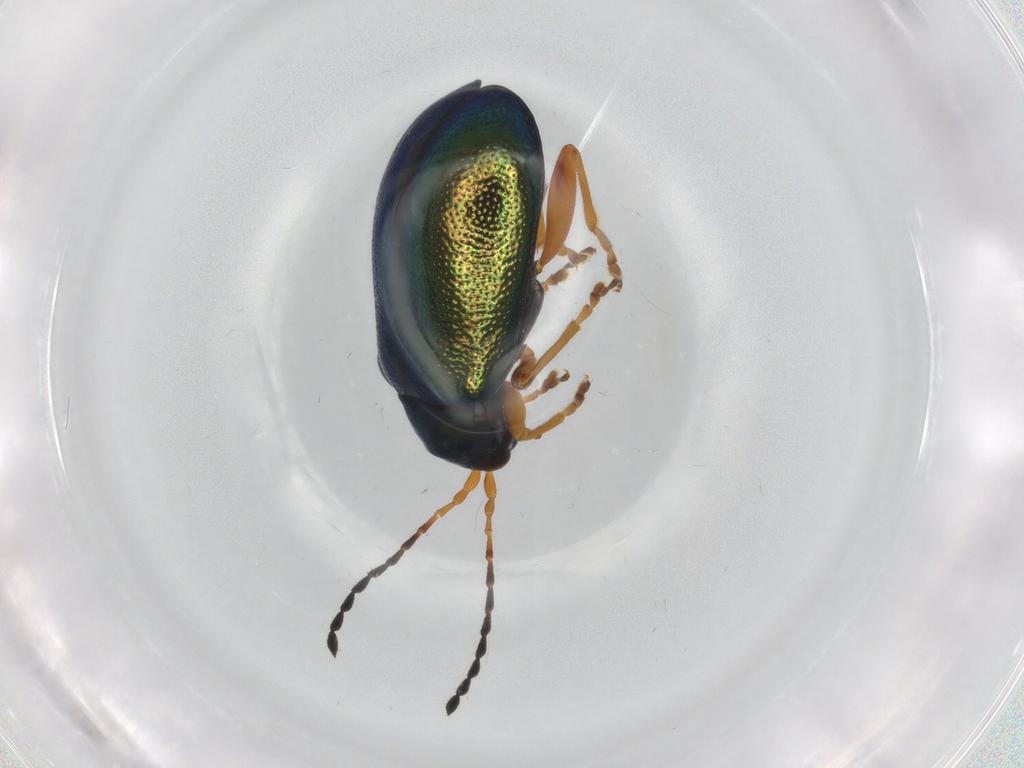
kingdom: Animalia
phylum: Arthropoda
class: Insecta
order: Coleoptera
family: Chrysomelidae
